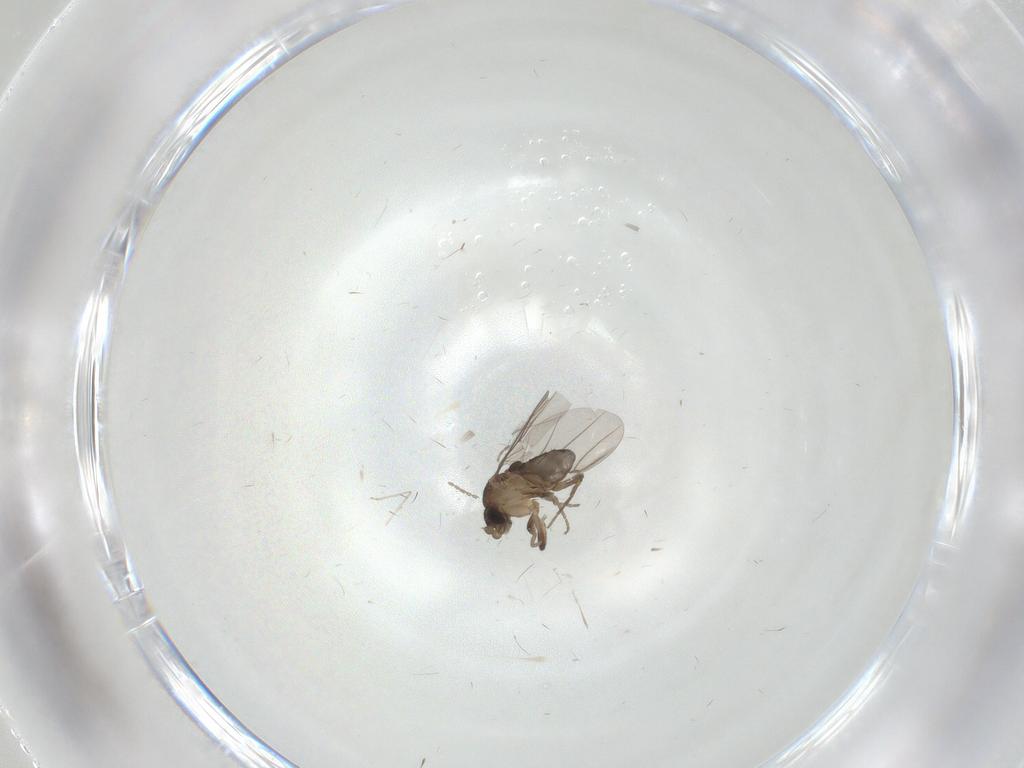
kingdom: Animalia
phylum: Arthropoda
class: Insecta
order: Diptera
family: Phoridae
